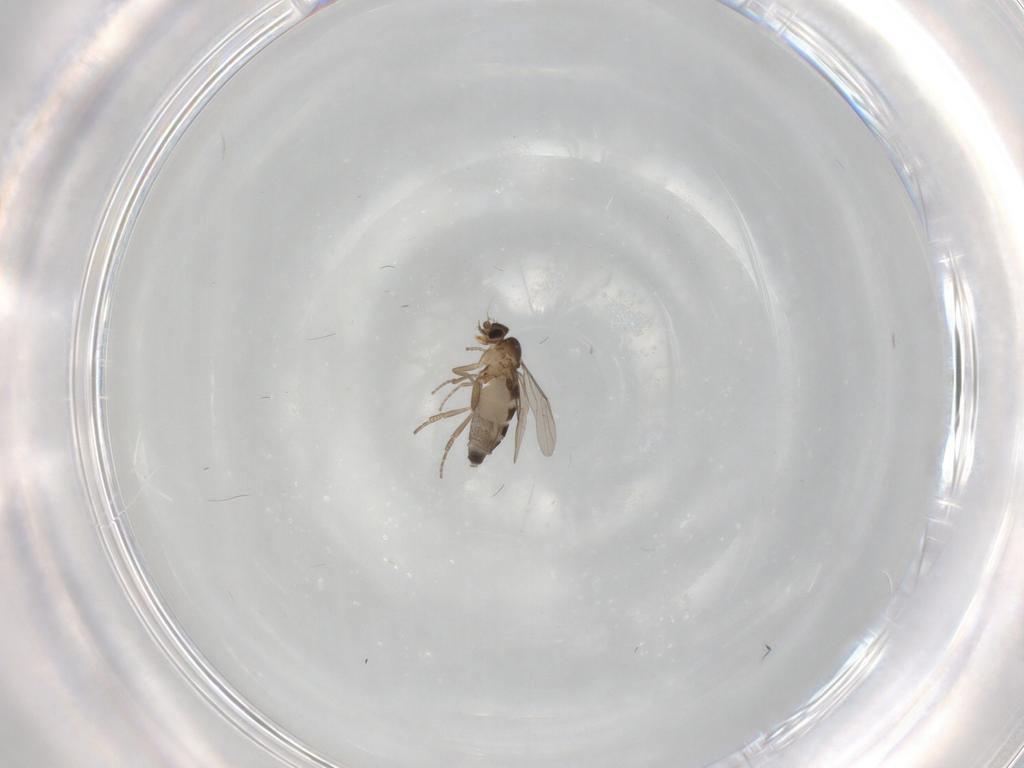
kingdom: Animalia
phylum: Arthropoda
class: Insecta
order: Diptera
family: Phoridae
